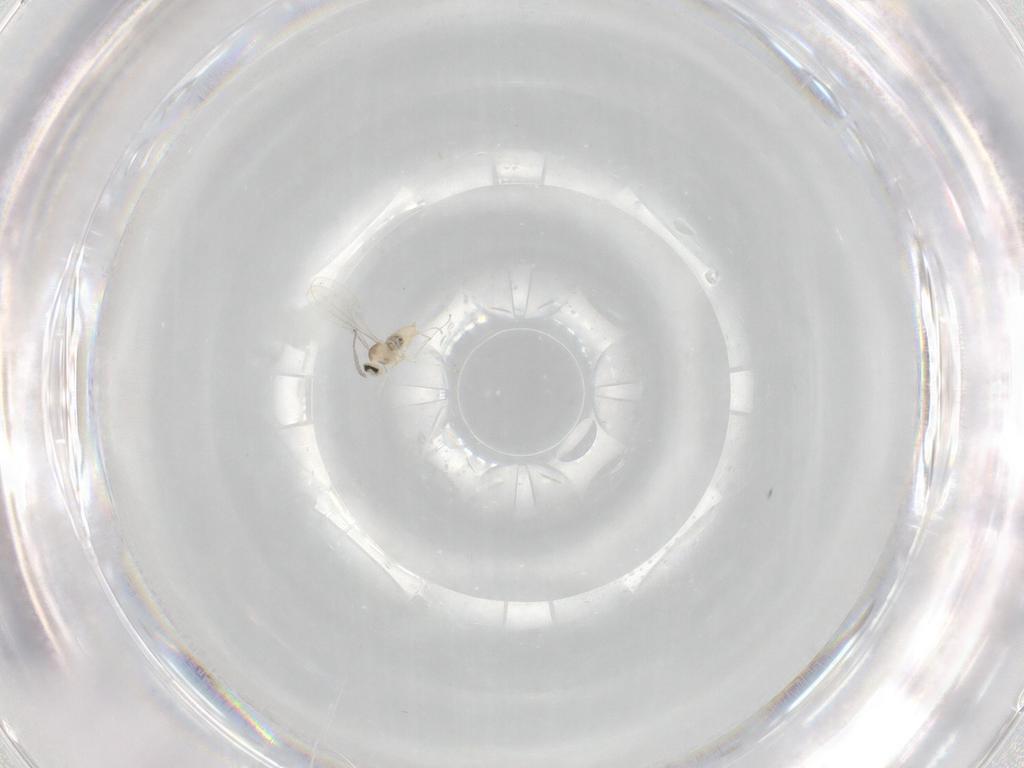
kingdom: Animalia
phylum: Arthropoda
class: Insecta
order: Diptera
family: Cecidomyiidae
